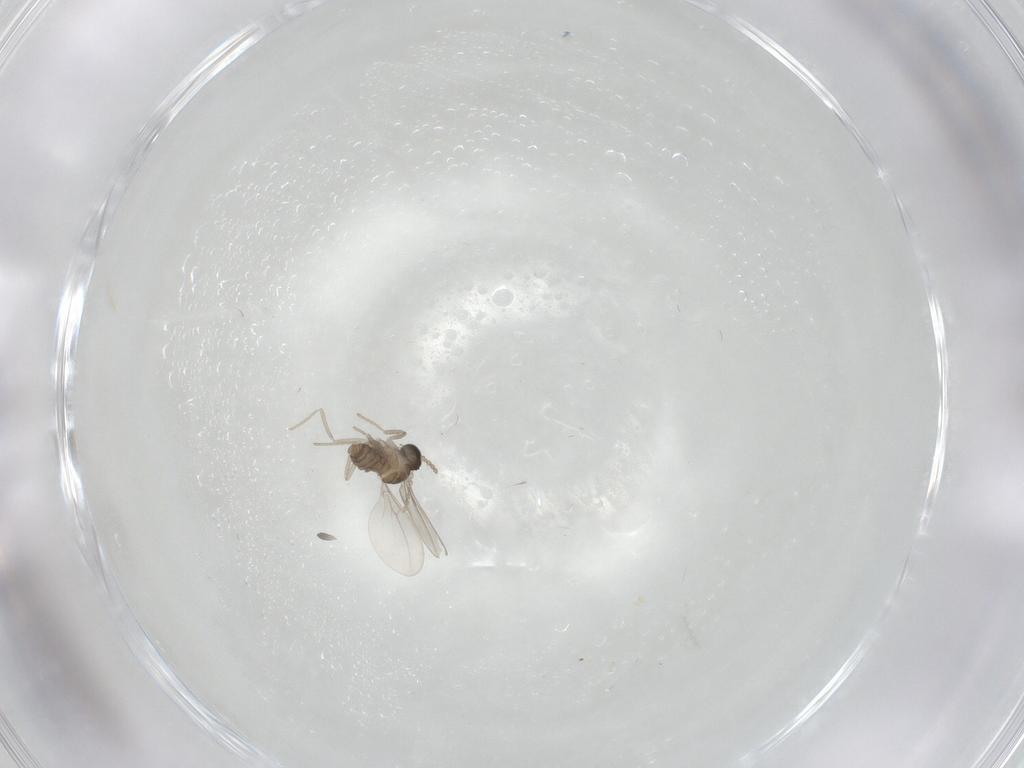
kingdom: Animalia
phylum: Arthropoda
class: Insecta
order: Diptera
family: Cecidomyiidae
